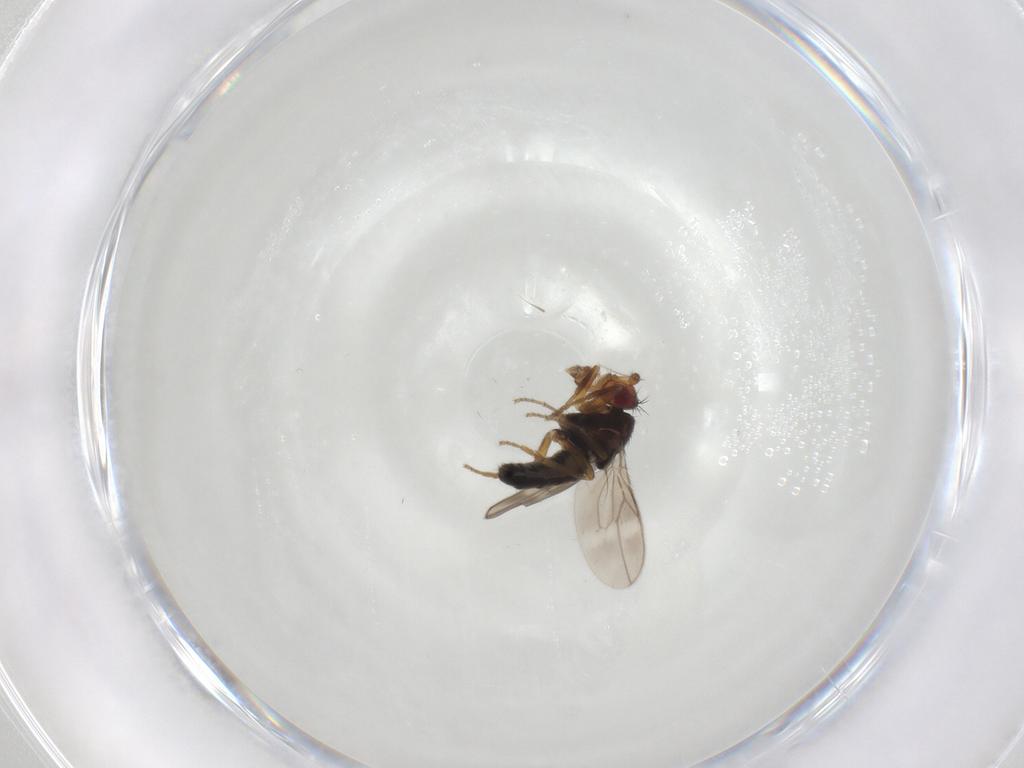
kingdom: Animalia
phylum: Arthropoda
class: Insecta
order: Diptera
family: Sphaeroceridae
